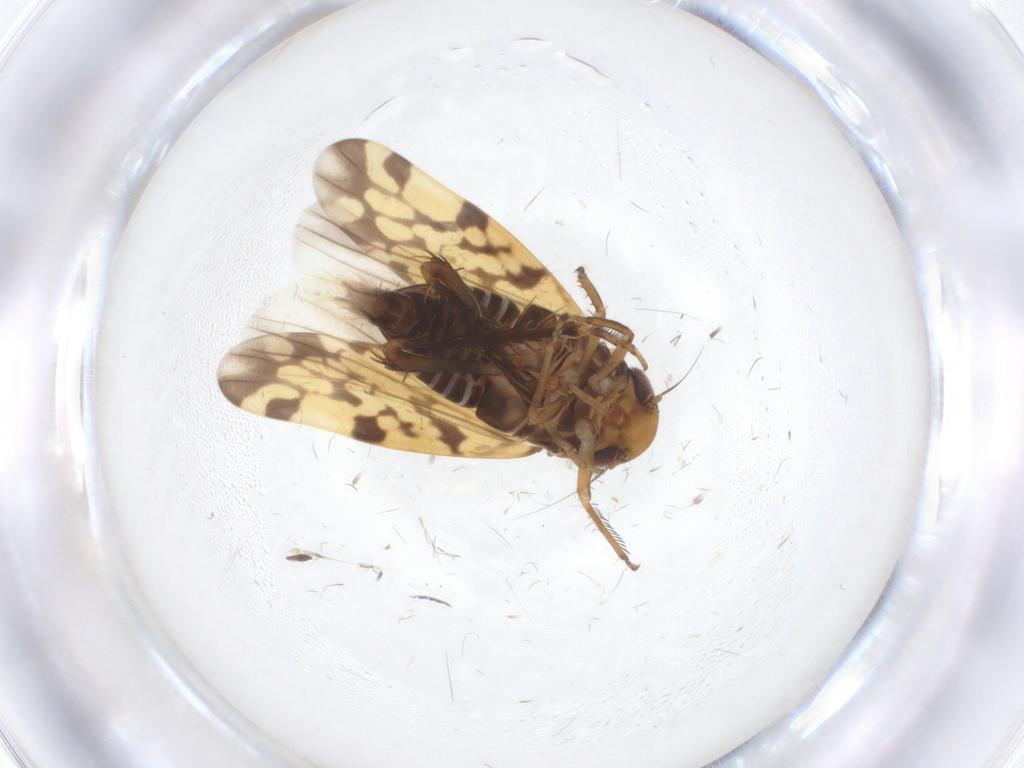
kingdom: Animalia
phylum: Arthropoda
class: Insecta
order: Hemiptera
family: Cicadellidae
